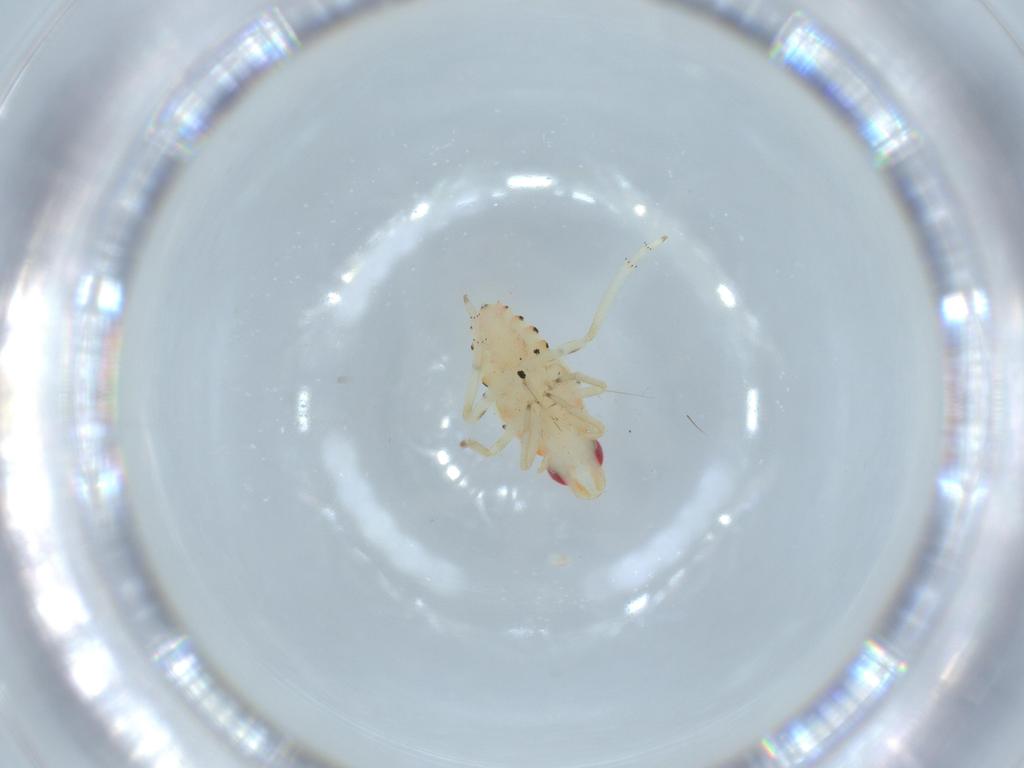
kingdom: Animalia
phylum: Arthropoda
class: Insecta
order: Hemiptera
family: Tropiduchidae
